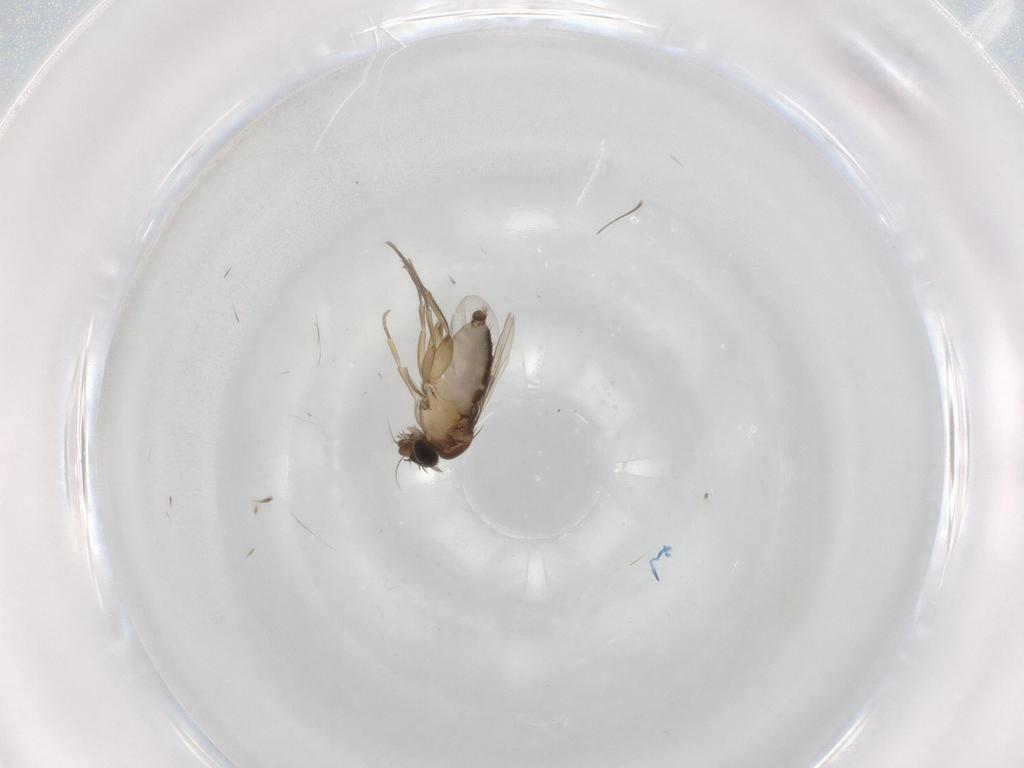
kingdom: Animalia
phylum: Arthropoda
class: Insecta
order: Diptera
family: Phoridae
